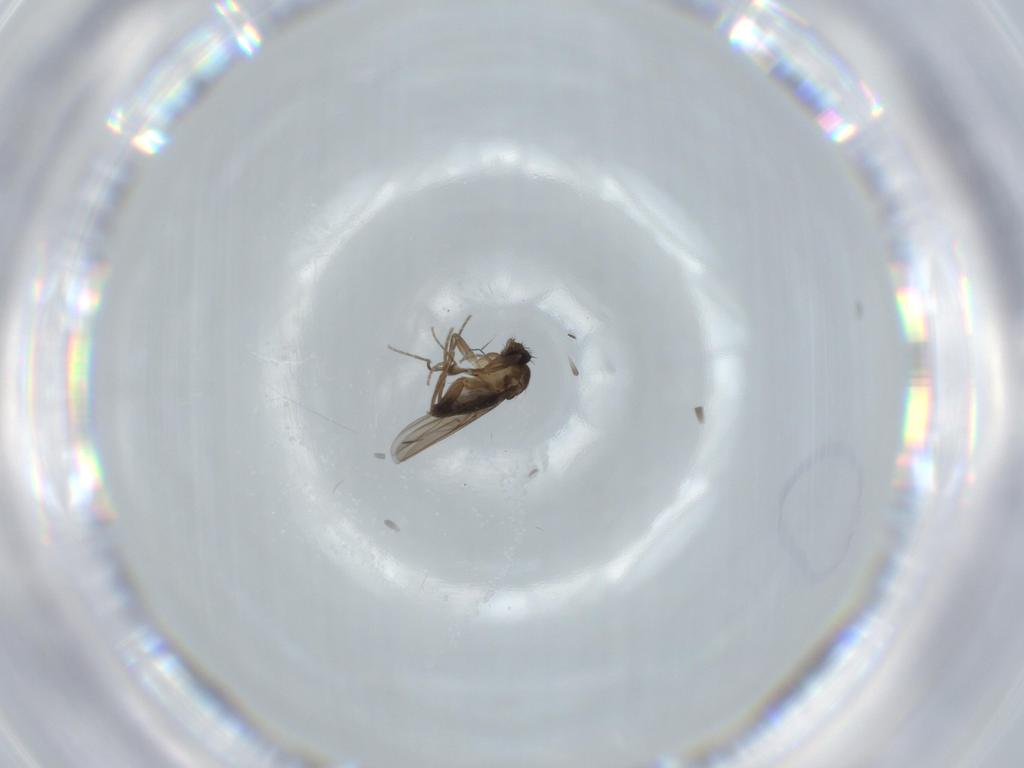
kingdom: Animalia
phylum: Arthropoda
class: Insecta
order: Diptera
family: Phoridae
